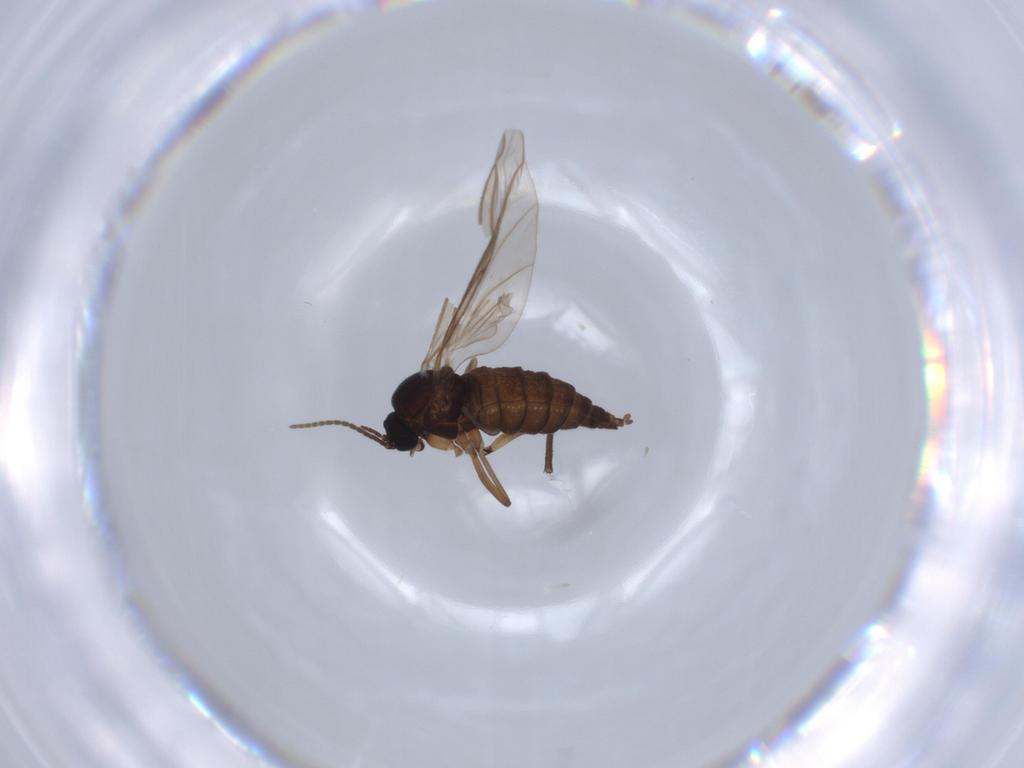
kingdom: Animalia
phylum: Arthropoda
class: Insecta
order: Diptera
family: Sciaridae
